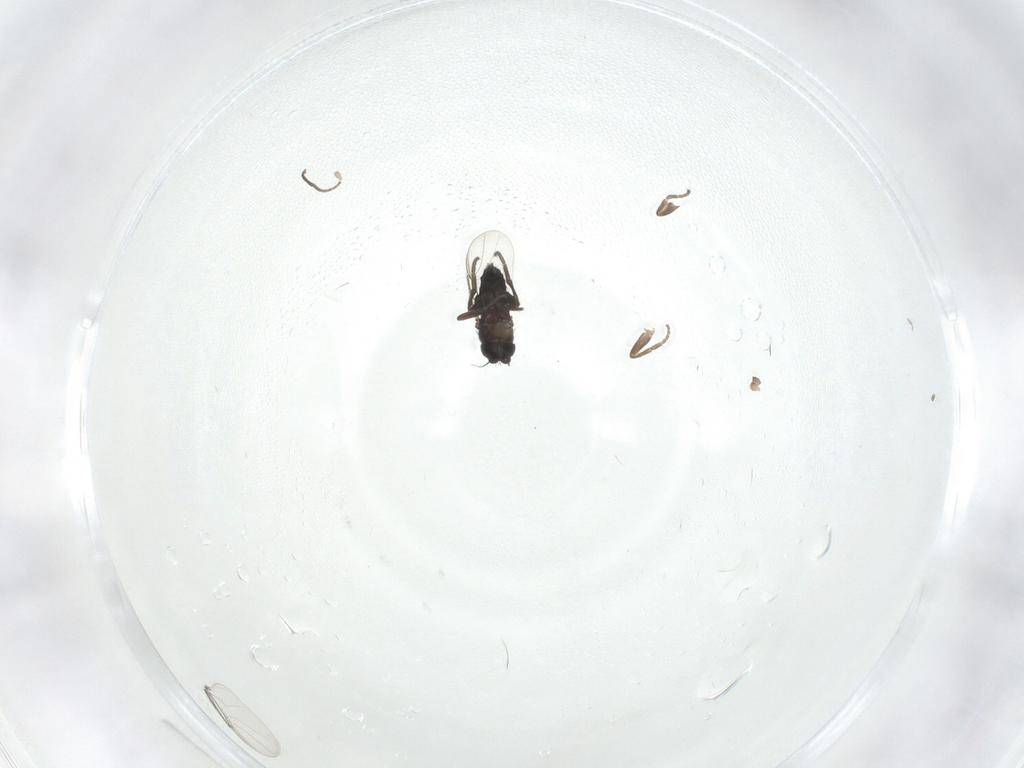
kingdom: Animalia
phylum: Arthropoda
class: Insecta
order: Diptera
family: Phoridae
